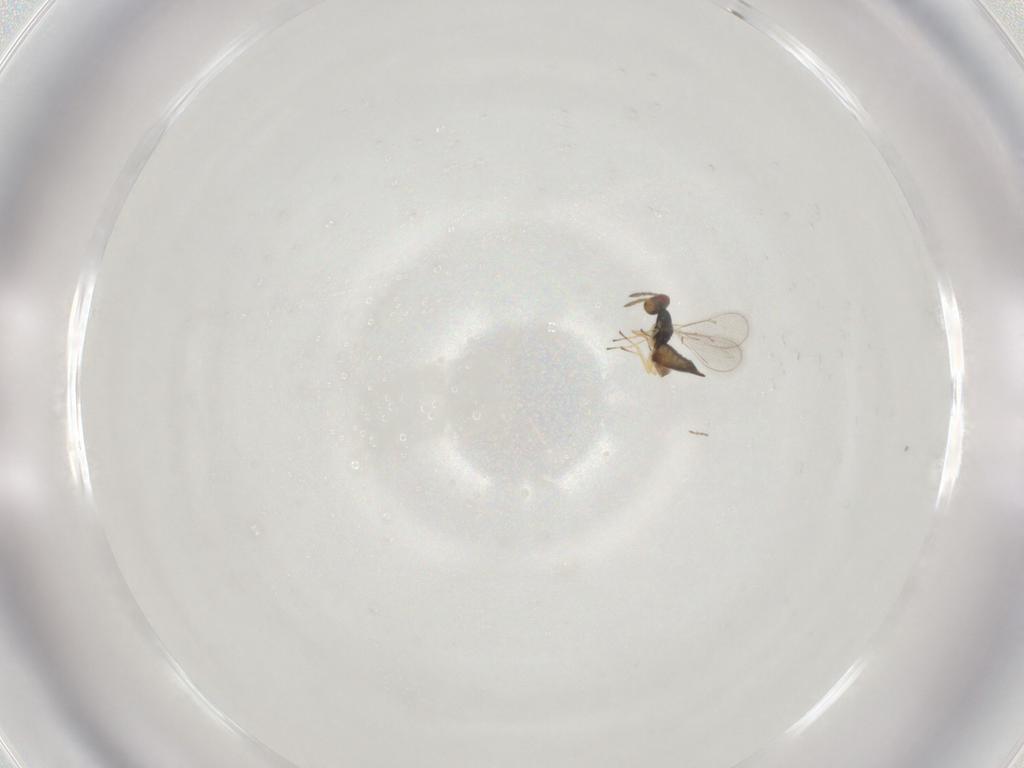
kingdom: Animalia
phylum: Arthropoda
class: Insecta
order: Hymenoptera
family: Eulophidae
